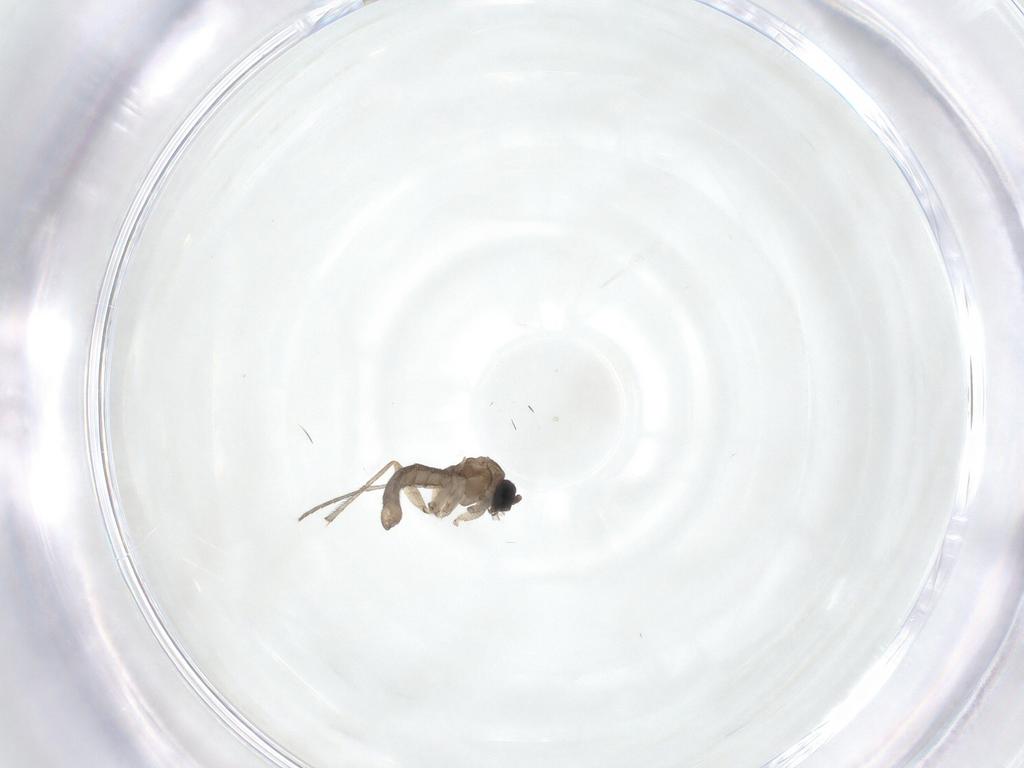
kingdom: Animalia
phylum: Arthropoda
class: Insecta
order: Diptera
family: Sciaridae
